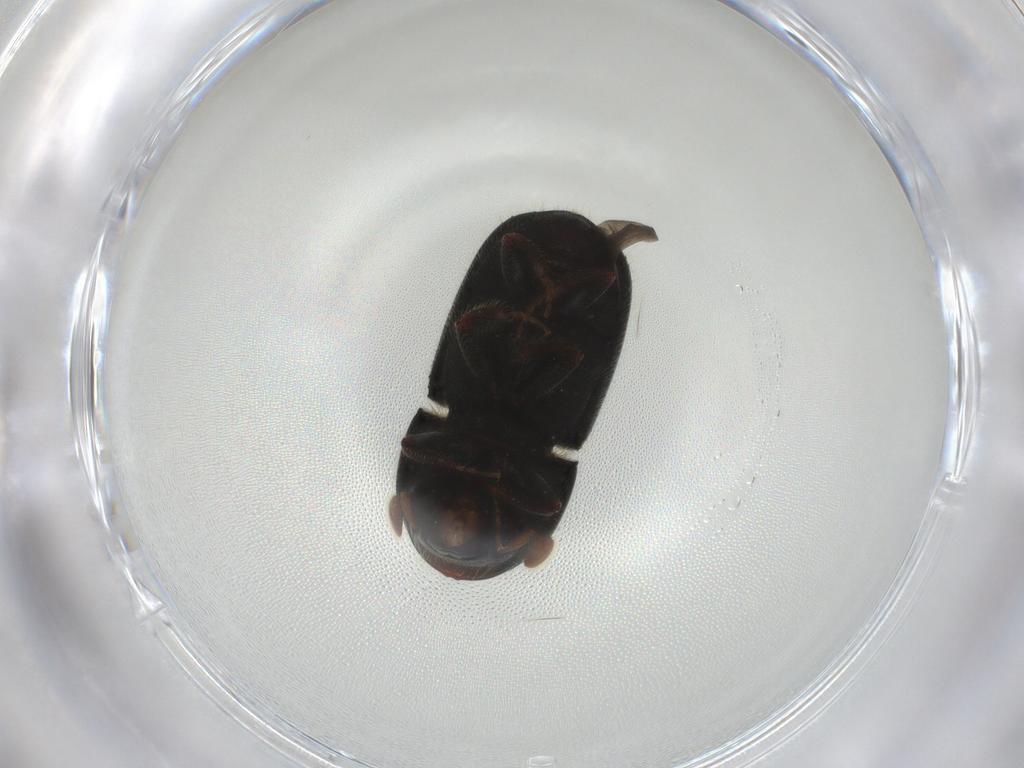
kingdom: Animalia
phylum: Arthropoda
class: Insecta
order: Coleoptera
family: Curculionidae
